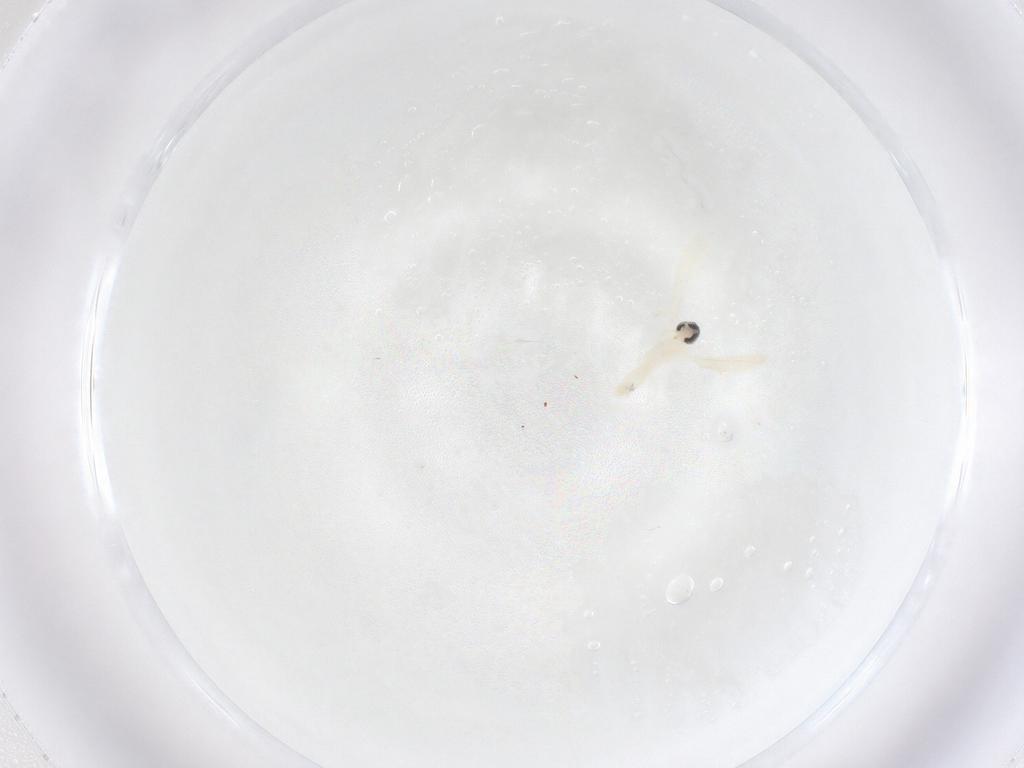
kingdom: Animalia
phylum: Arthropoda
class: Insecta
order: Diptera
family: Cecidomyiidae
